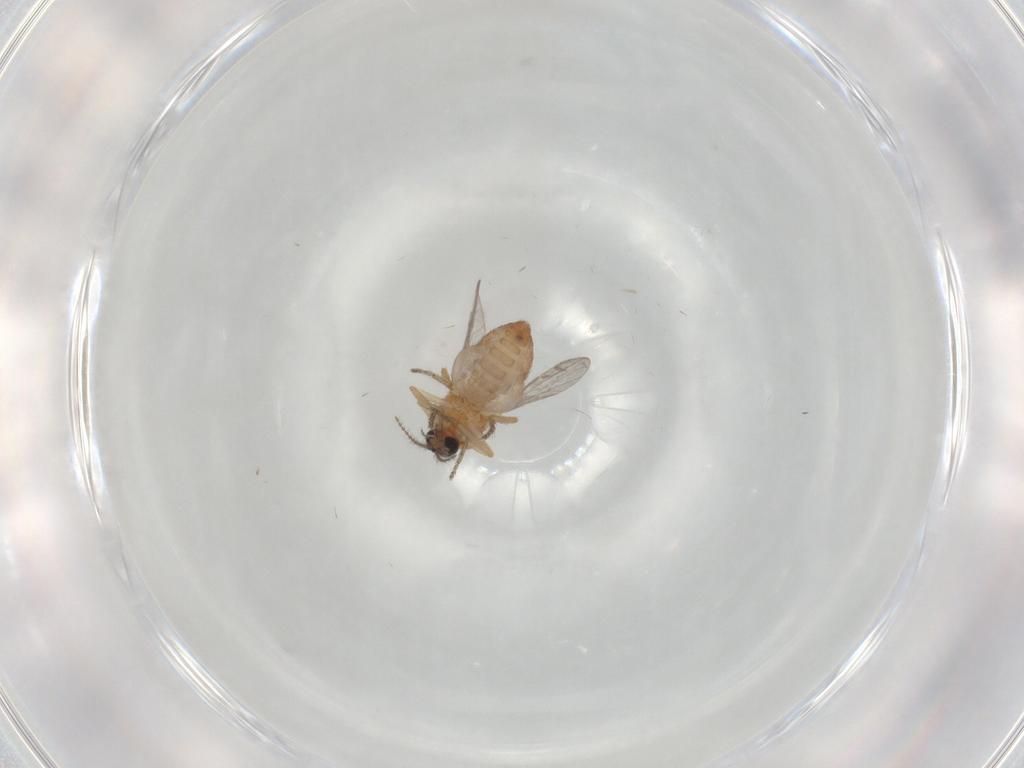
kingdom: Animalia
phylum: Arthropoda
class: Insecta
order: Diptera
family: Ceratopogonidae
